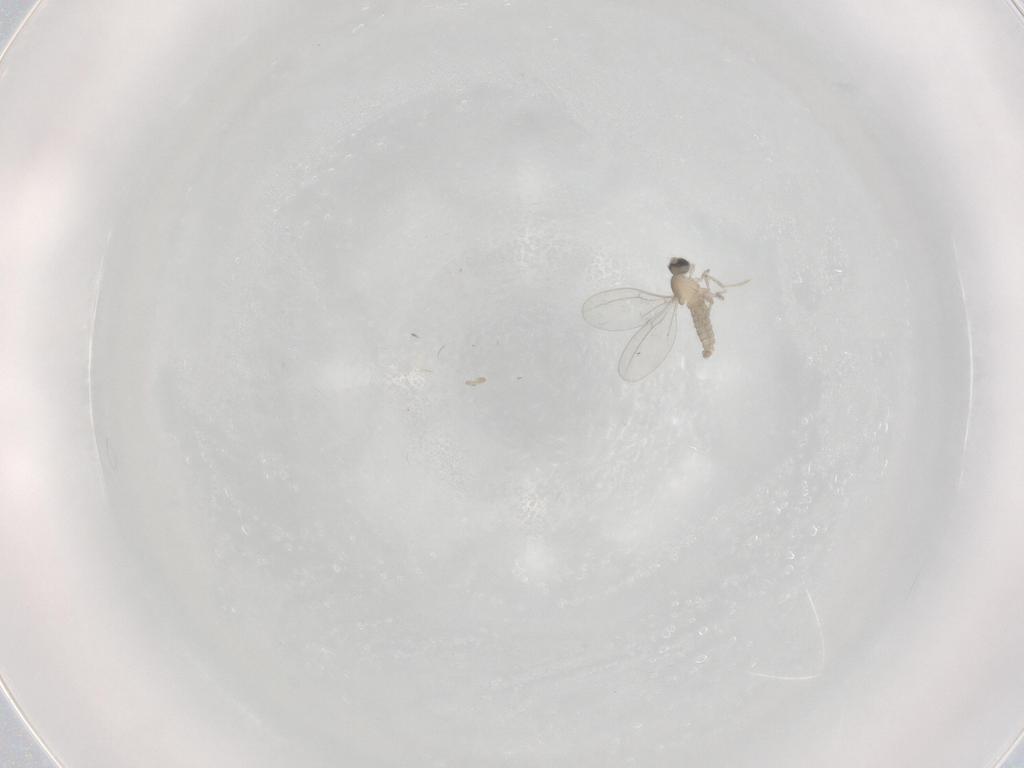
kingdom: Animalia
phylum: Arthropoda
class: Insecta
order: Diptera
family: Cecidomyiidae
